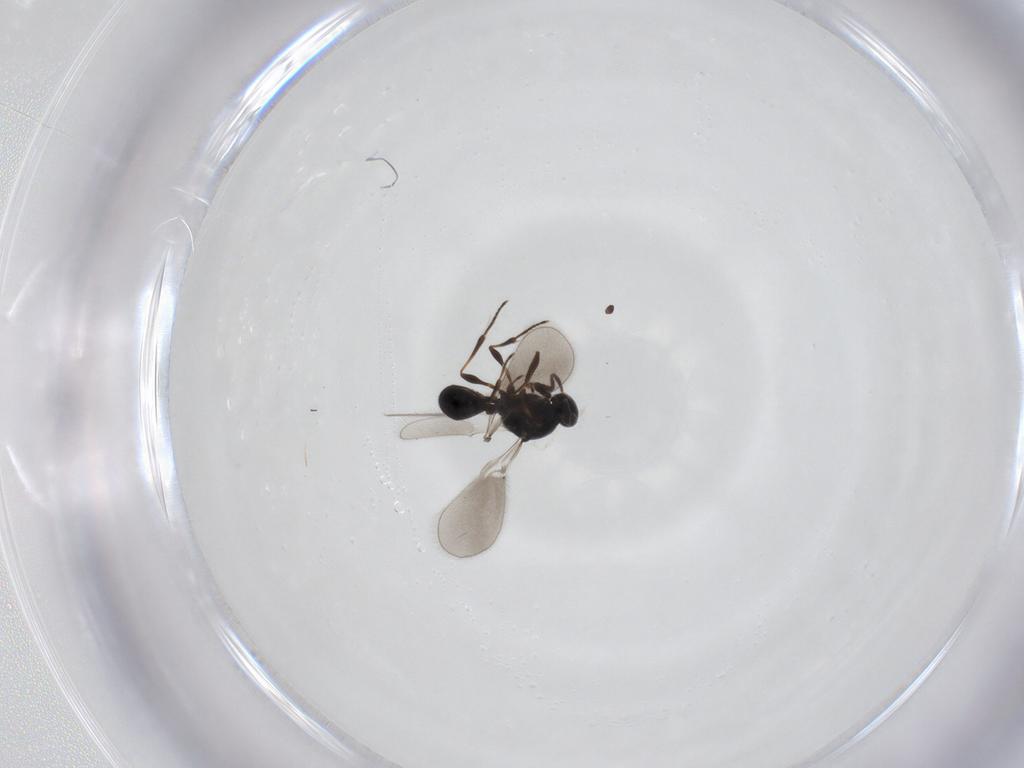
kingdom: Animalia
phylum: Arthropoda
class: Insecta
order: Hymenoptera
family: Platygastridae
